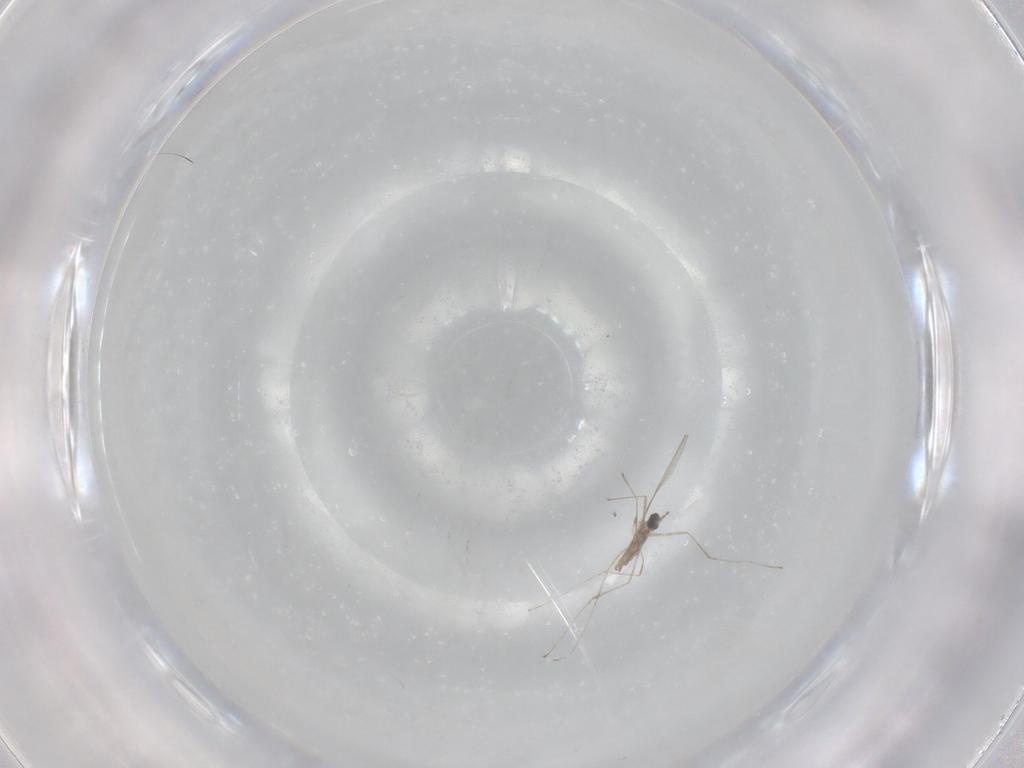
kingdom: Animalia
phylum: Arthropoda
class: Insecta
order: Diptera
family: Cecidomyiidae
